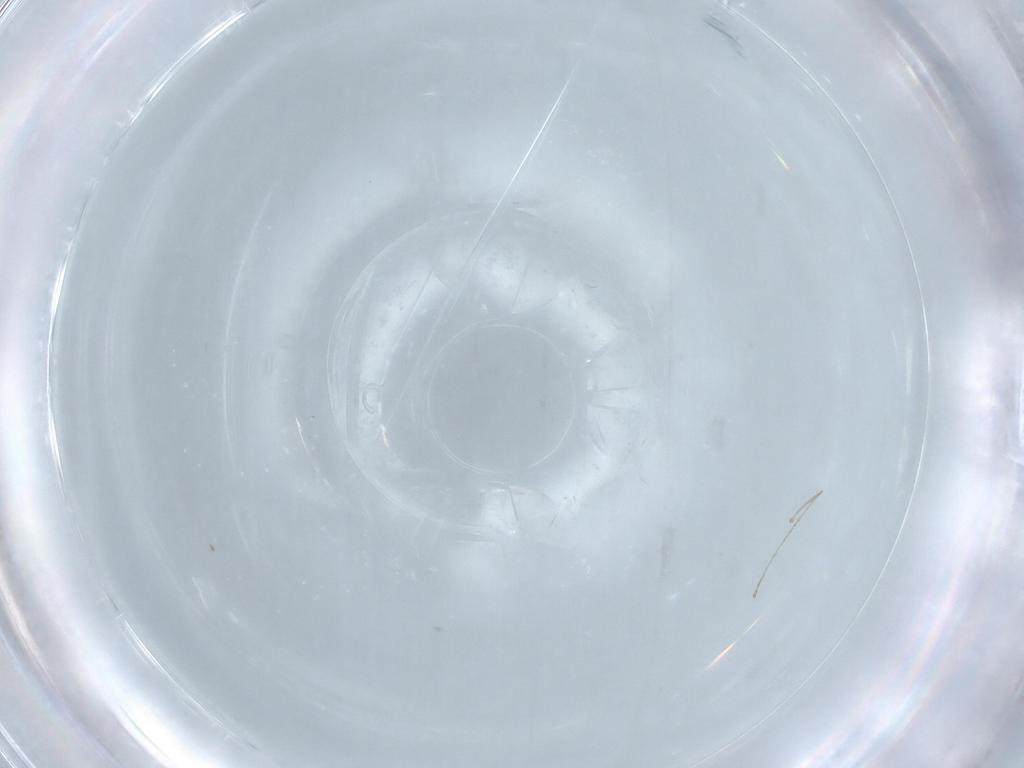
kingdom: Animalia
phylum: Arthropoda
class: Insecta
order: Diptera
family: Cecidomyiidae
